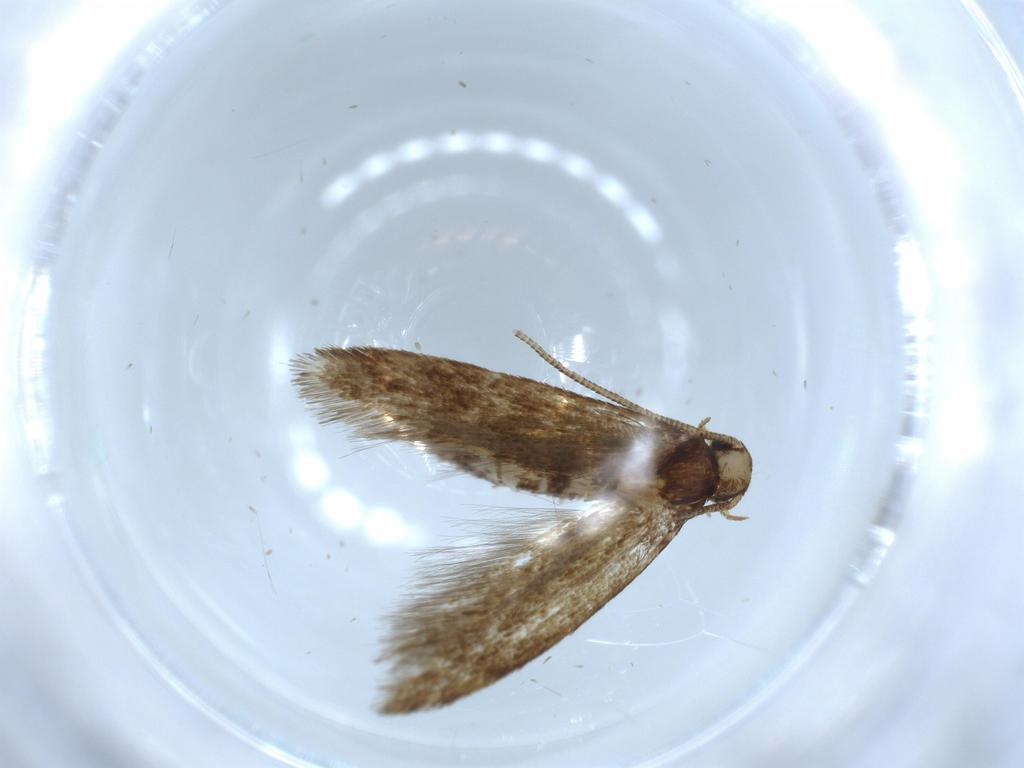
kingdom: Animalia
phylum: Arthropoda
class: Insecta
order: Lepidoptera
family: Tineidae
